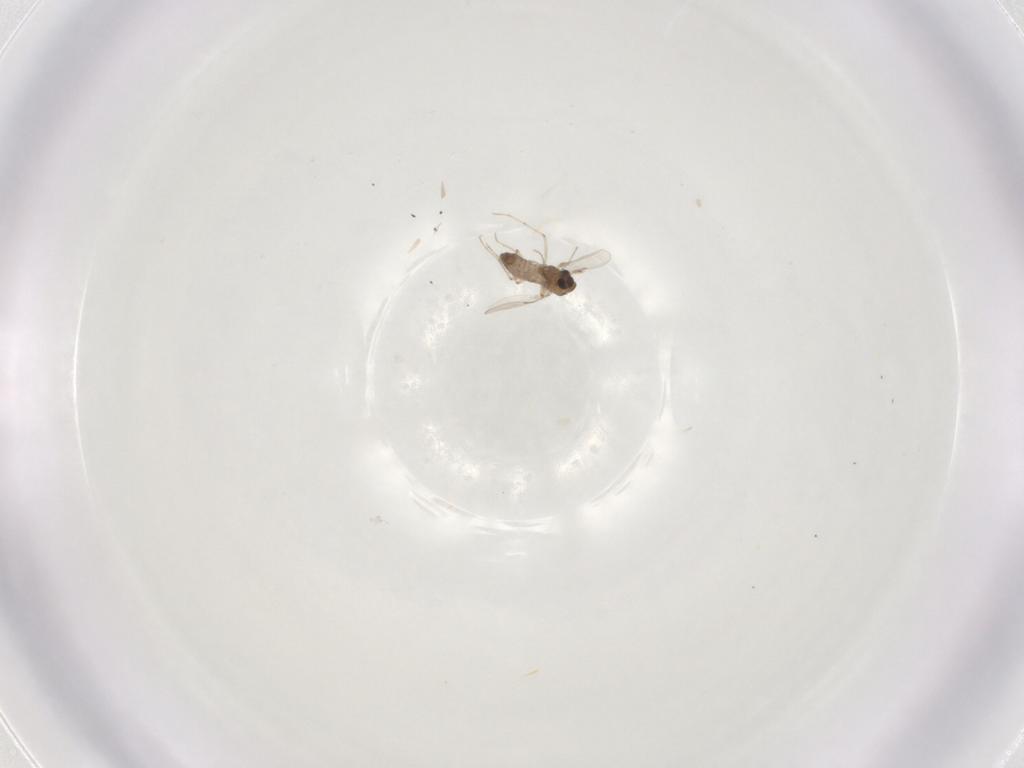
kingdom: Animalia
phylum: Arthropoda
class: Insecta
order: Diptera
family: Chironomidae
